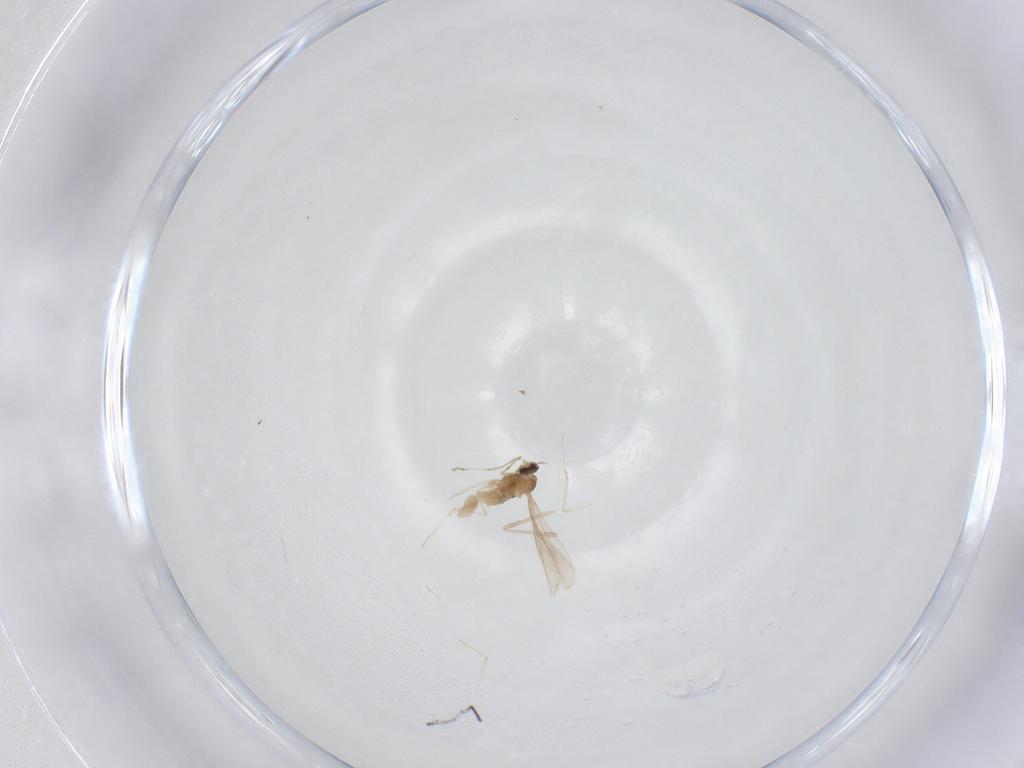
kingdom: Animalia
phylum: Arthropoda
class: Insecta
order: Diptera
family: Cecidomyiidae
